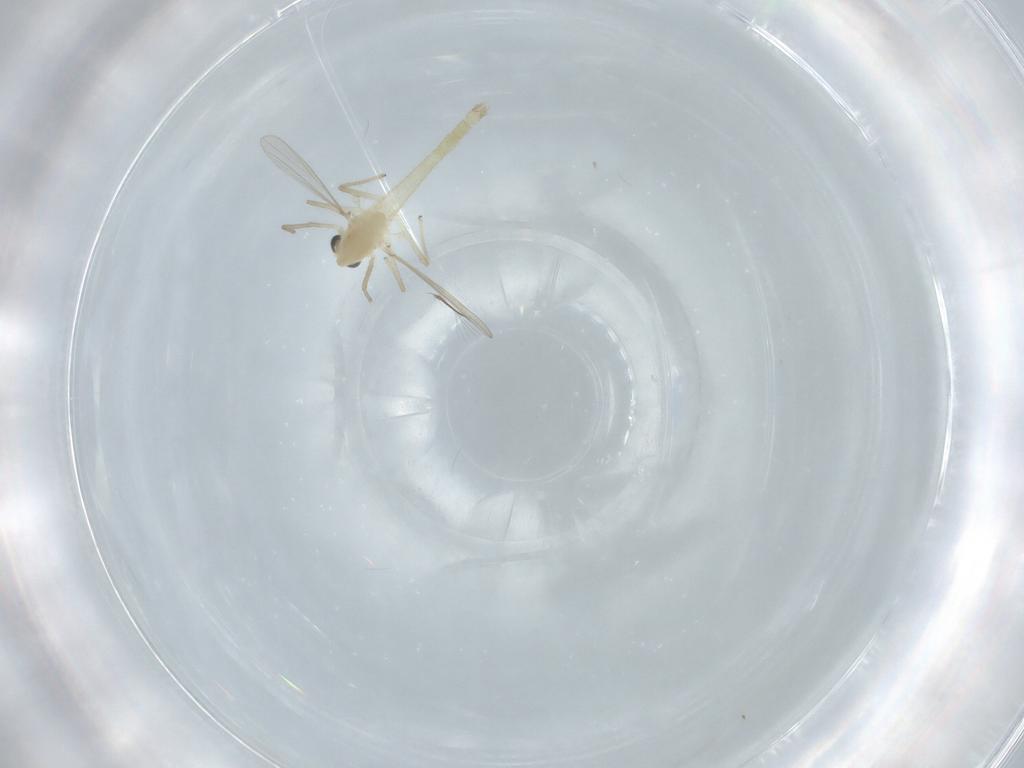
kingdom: Animalia
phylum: Arthropoda
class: Insecta
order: Diptera
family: Chironomidae
